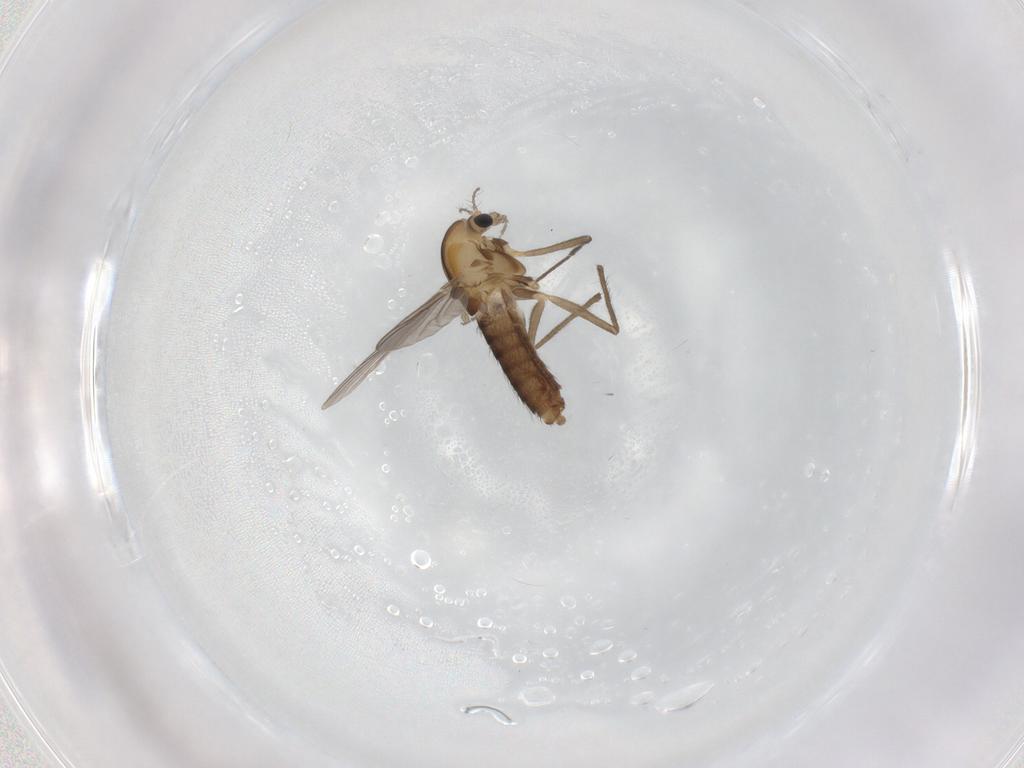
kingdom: Animalia
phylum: Arthropoda
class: Insecta
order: Diptera
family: Chironomidae
